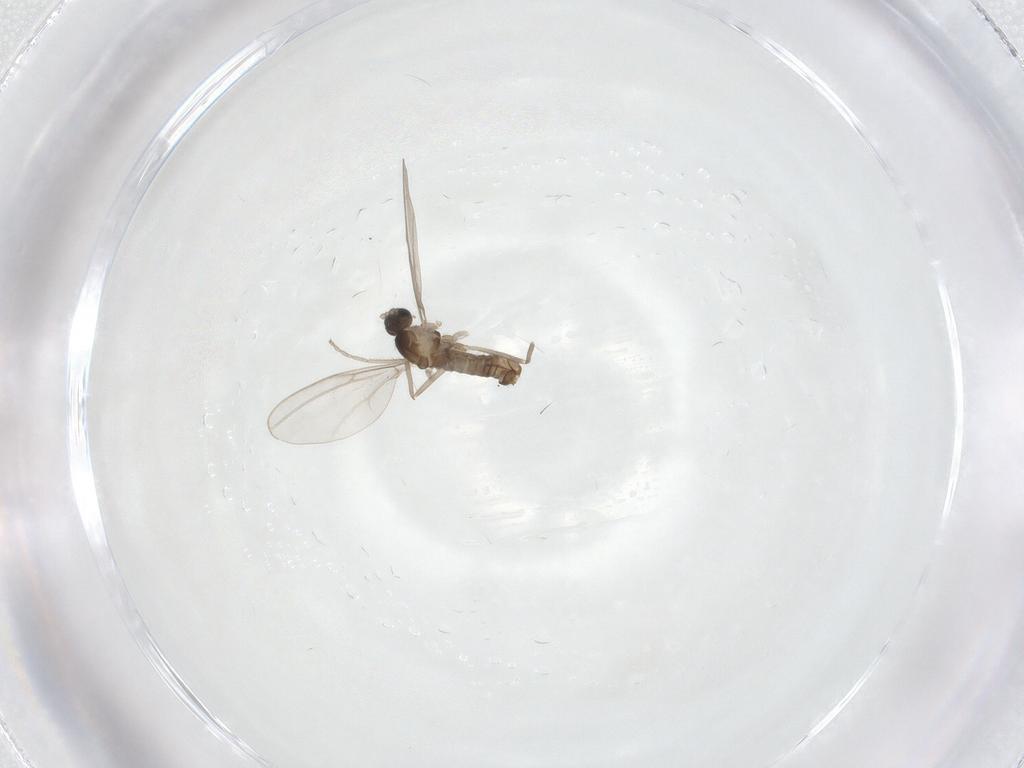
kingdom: Animalia
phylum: Arthropoda
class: Insecta
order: Diptera
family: Cecidomyiidae
